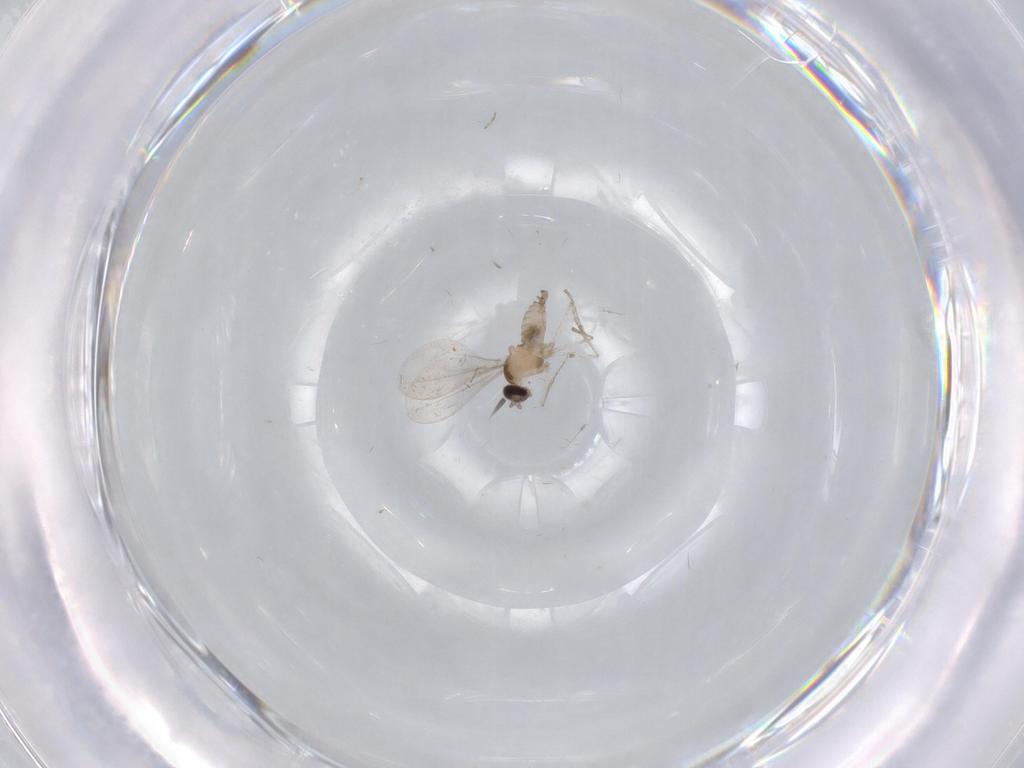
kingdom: Animalia
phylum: Arthropoda
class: Insecta
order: Diptera
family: Cecidomyiidae
